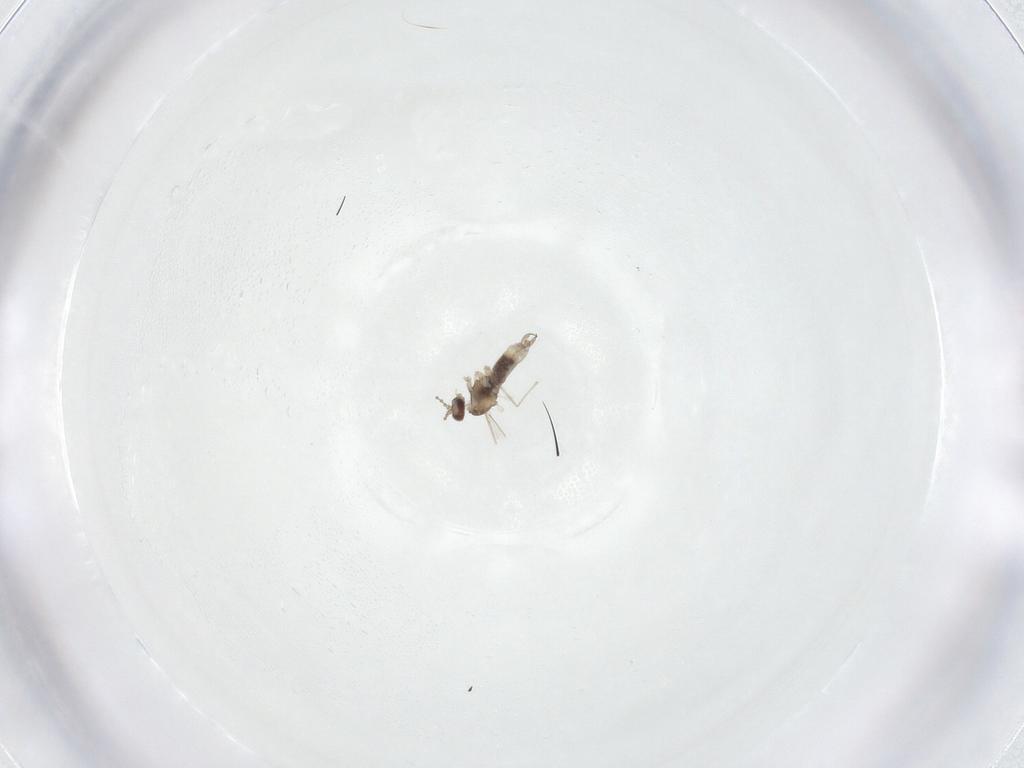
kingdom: Animalia
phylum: Arthropoda
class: Insecta
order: Diptera
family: Cecidomyiidae
